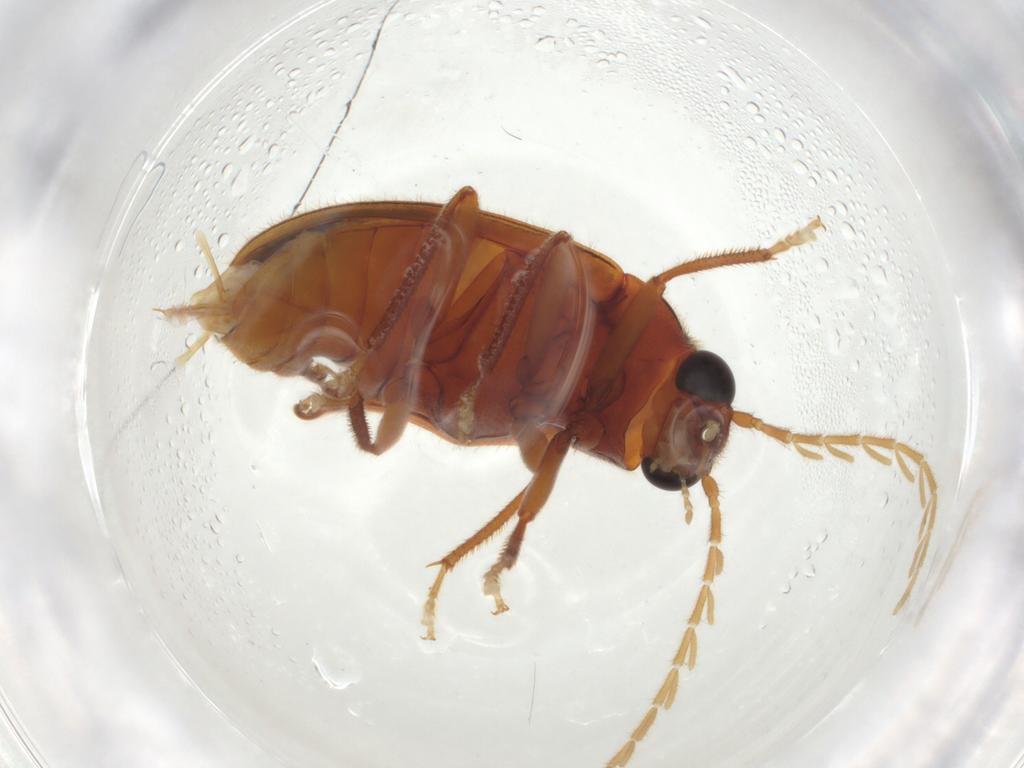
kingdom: Animalia
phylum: Arthropoda
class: Insecta
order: Coleoptera
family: Ptilodactylidae
